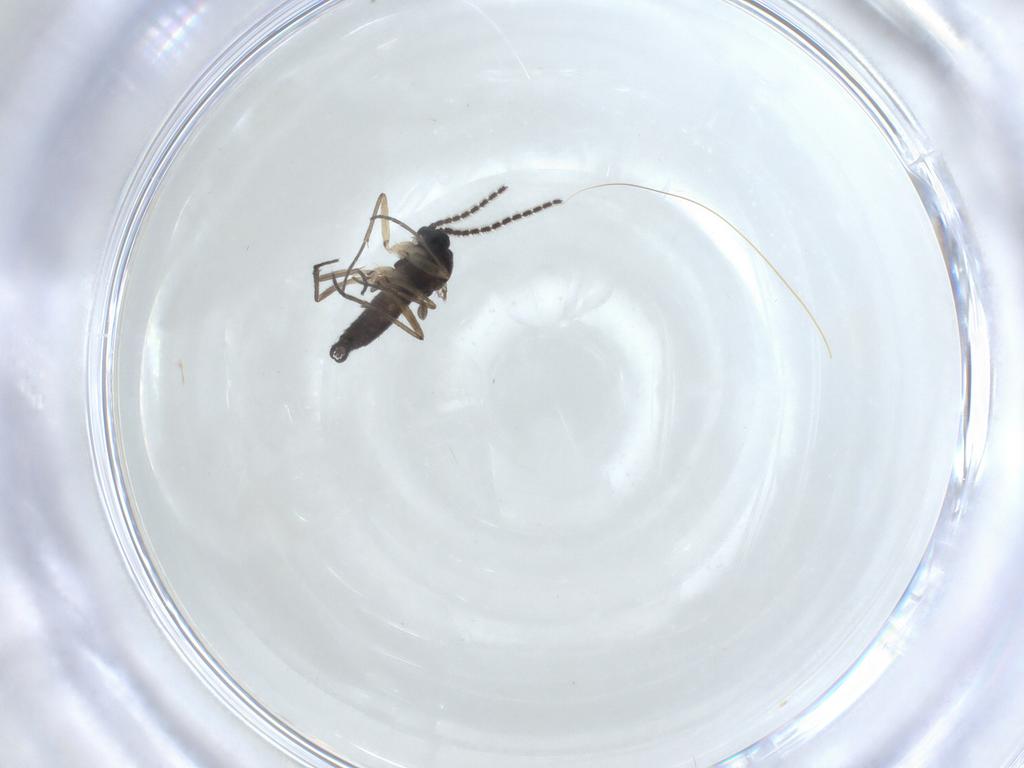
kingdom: Animalia
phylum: Arthropoda
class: Insecta
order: Diptera
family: Sciaridae
